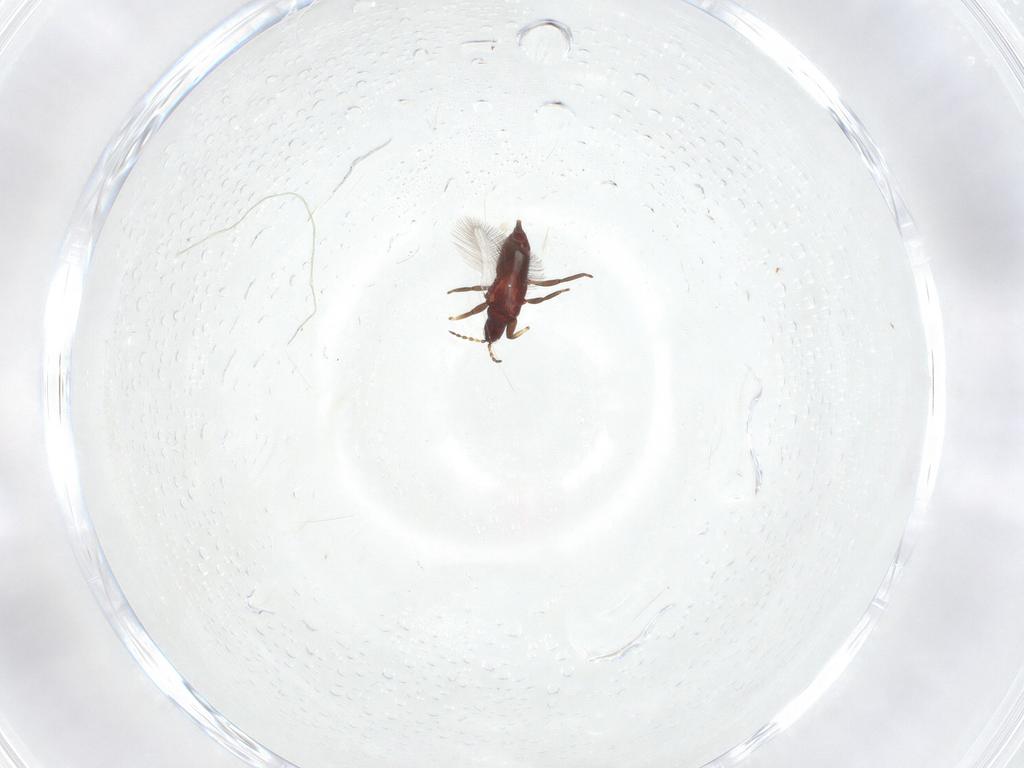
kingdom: Animalia
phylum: Arthropoda
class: Insecta
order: Thysanoptera
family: Phlaeothripidae
